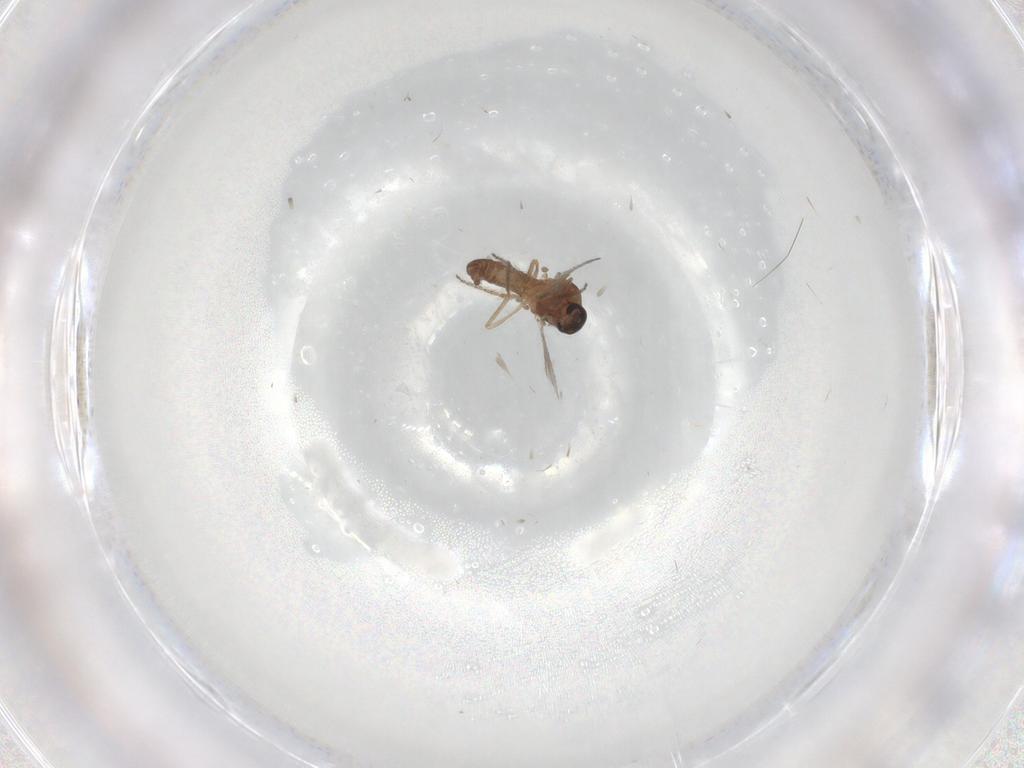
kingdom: Animalia
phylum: Arthropoda
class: Insecta
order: Diptera
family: Ceratopogonidae
